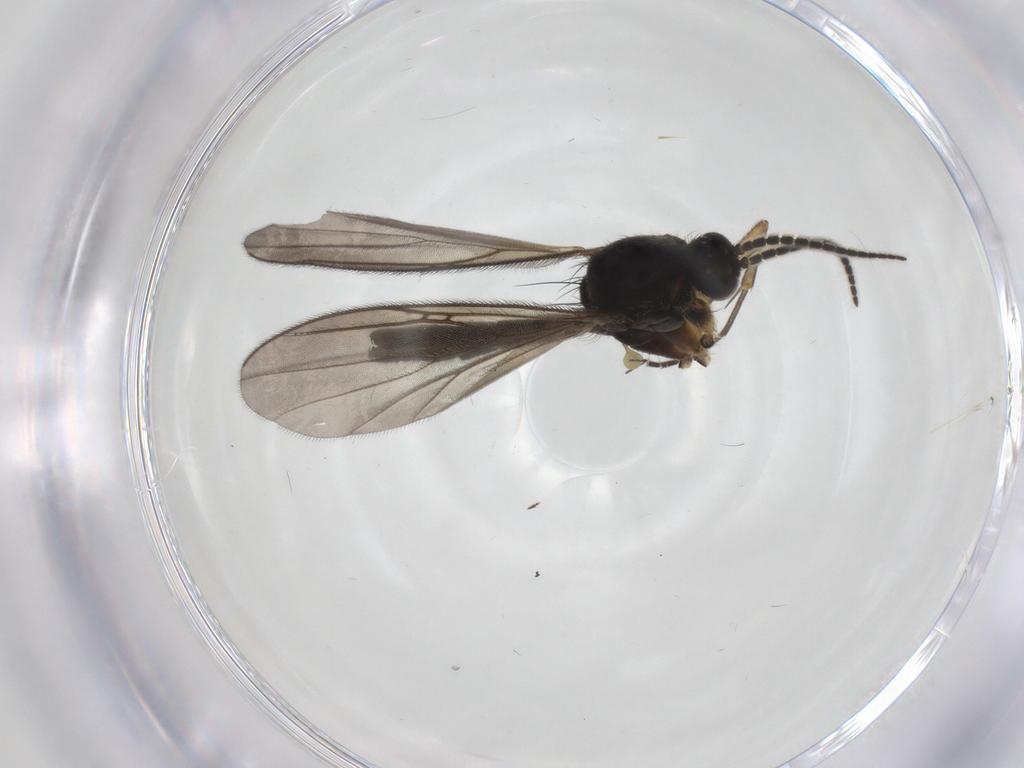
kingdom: Animalia
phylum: Arthropoda
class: Insecta
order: Diptera
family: Mycetophilidae
